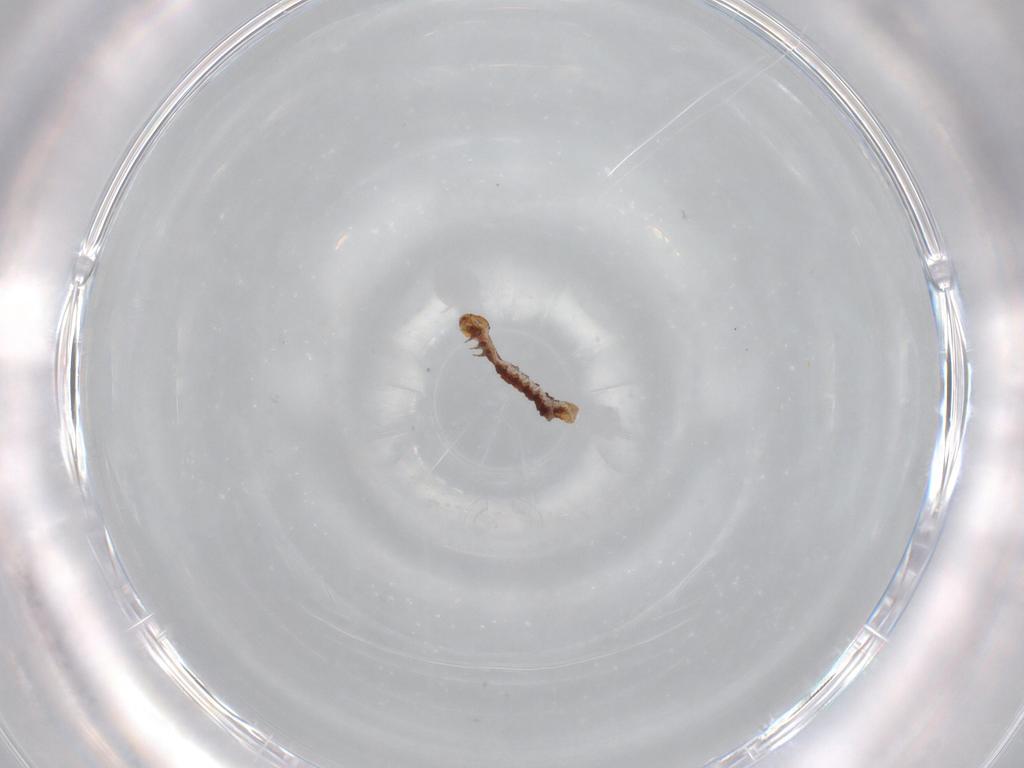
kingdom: Animalia
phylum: Arthropoda
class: Insecta
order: Lepidoptera
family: Geometridae
